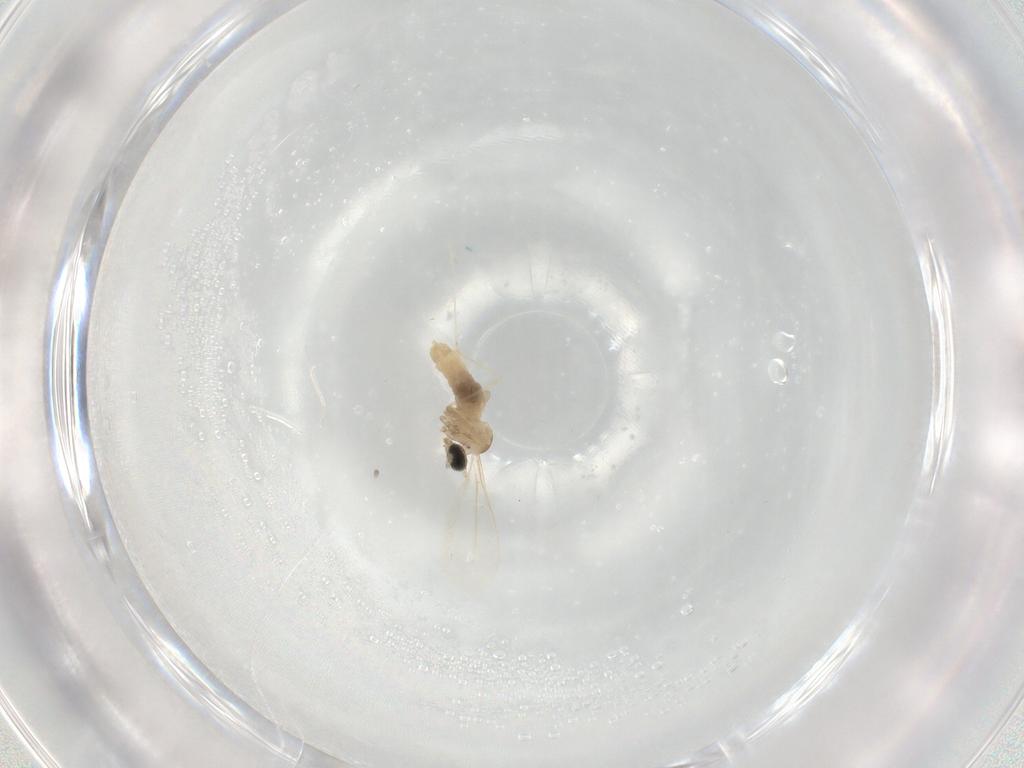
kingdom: Animalia
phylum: Arthropoda
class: Insecta
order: Diptera
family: Cecidomyiidae
